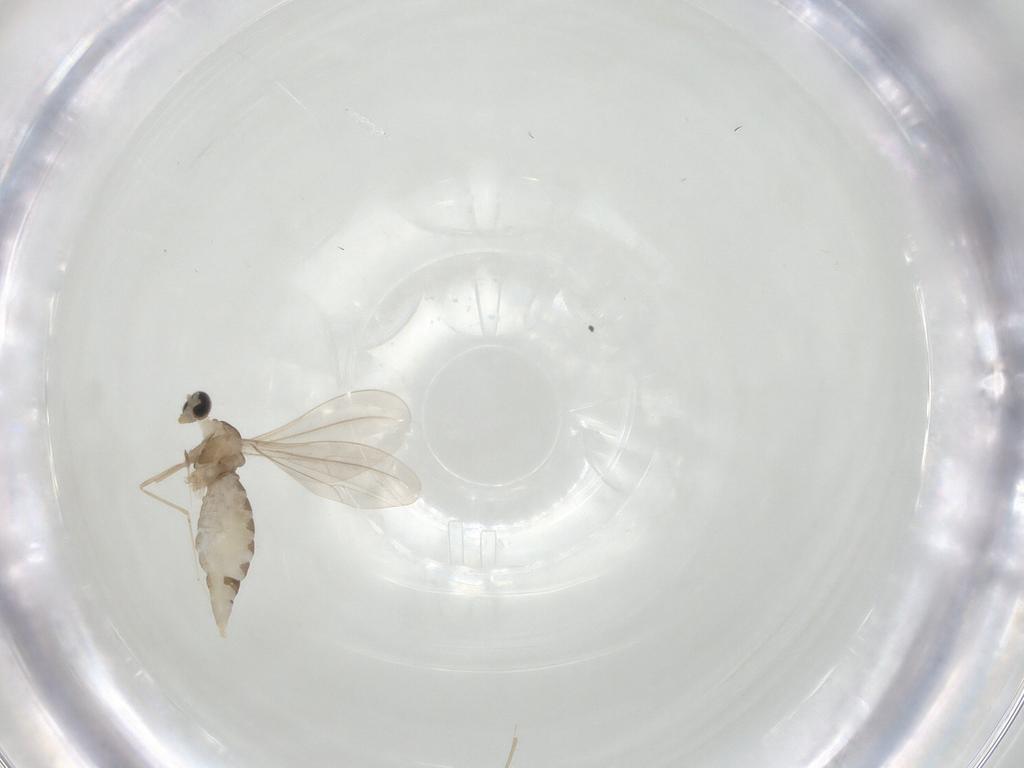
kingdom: Animalia
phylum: Arthropoda
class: Insecta
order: Diptera
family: Cecidomyiidae
